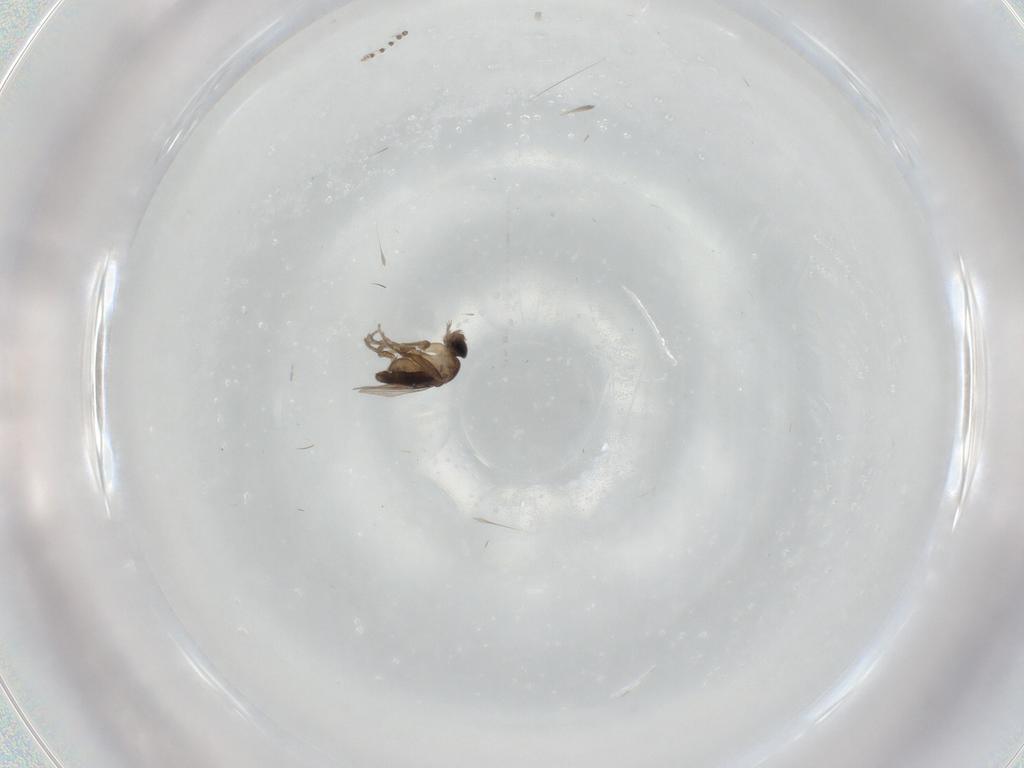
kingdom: Animalia
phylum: Arthropoda
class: Insecta
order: Diptera
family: Phoridae
